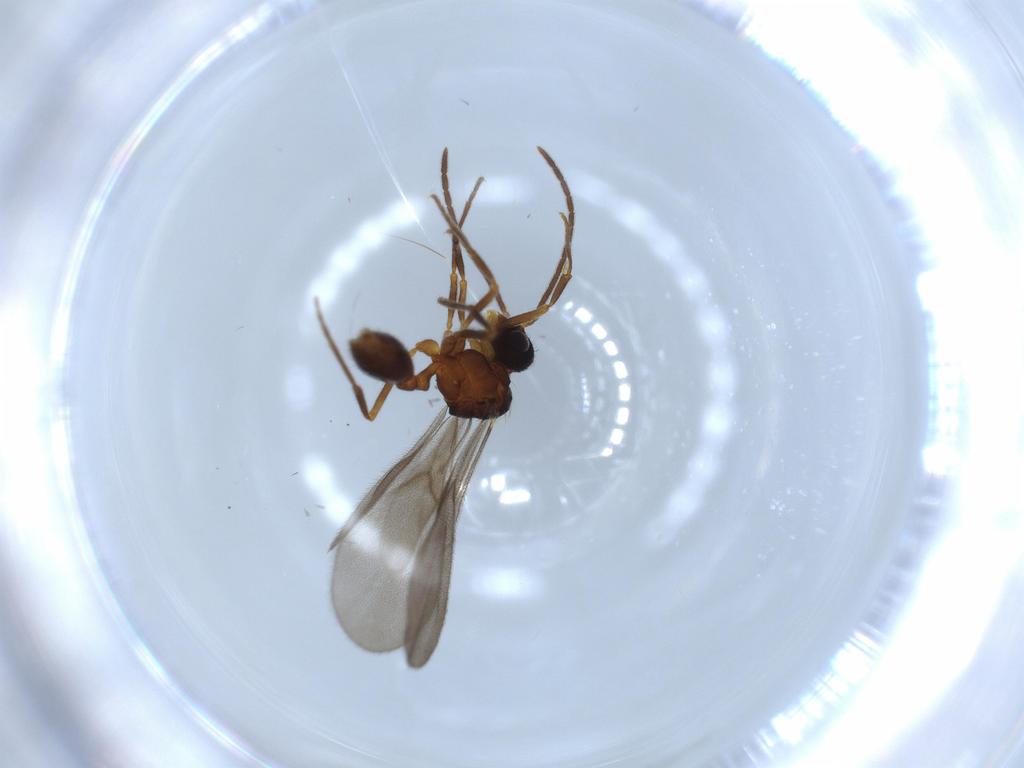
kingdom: Animalia
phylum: Arthropoda
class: Insecta
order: Hymenoptera
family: Formicidae
